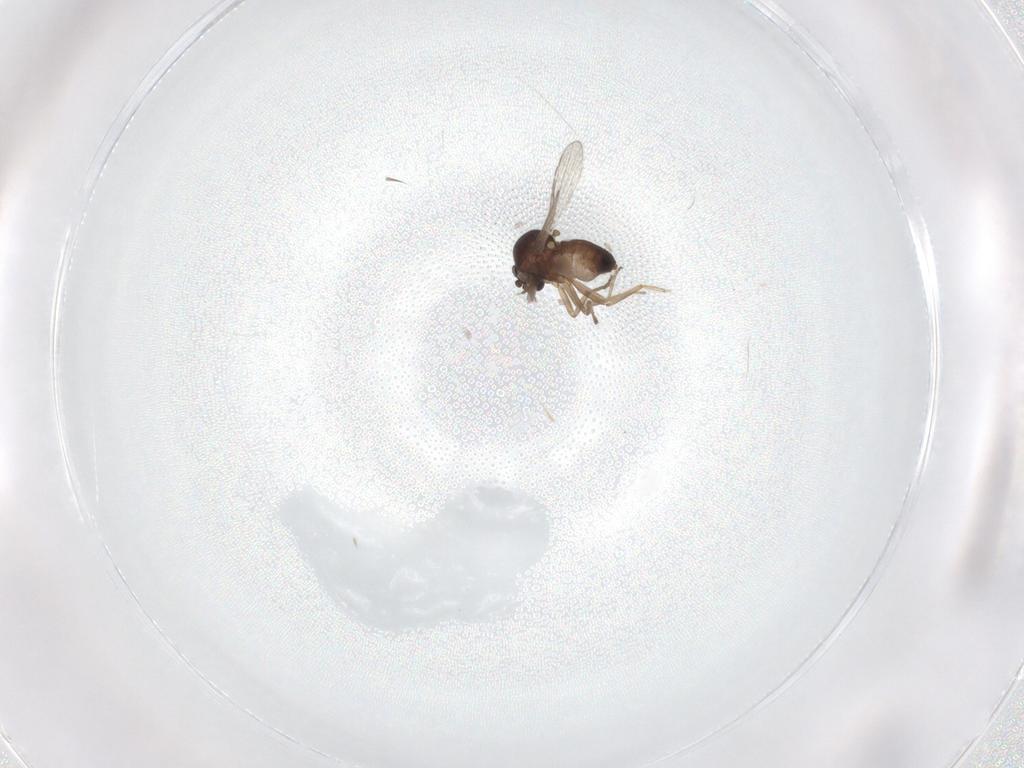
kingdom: Animalia
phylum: Arthropoda
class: Insecta
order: Diptera
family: Ceratopogonidae
